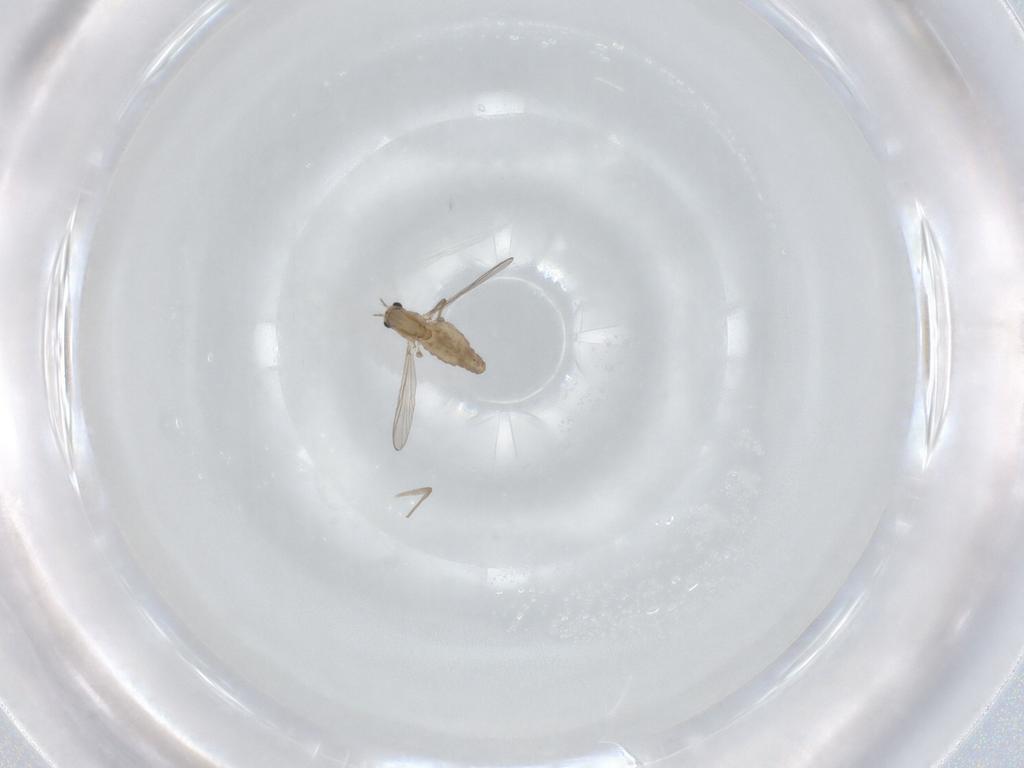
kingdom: Animalia
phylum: Arthropoda
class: Insecta
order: Diptera
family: Chironomidae
